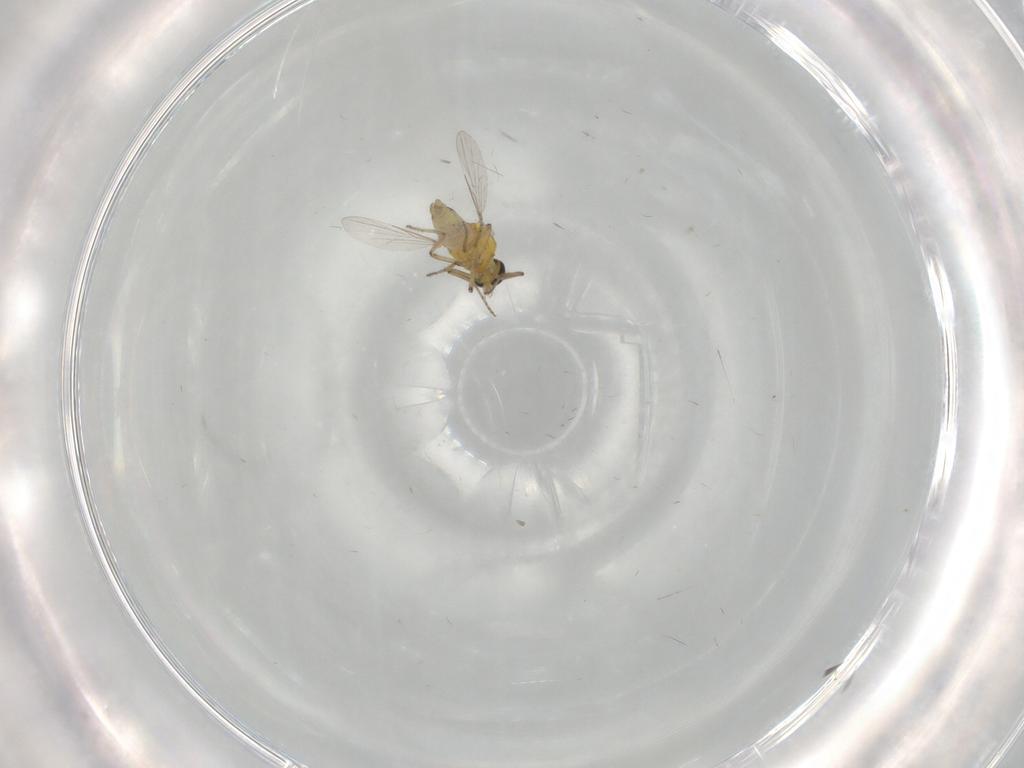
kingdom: Animalia
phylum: Arthropoda
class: Insecta
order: Diptera
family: Ceratopogonidae
